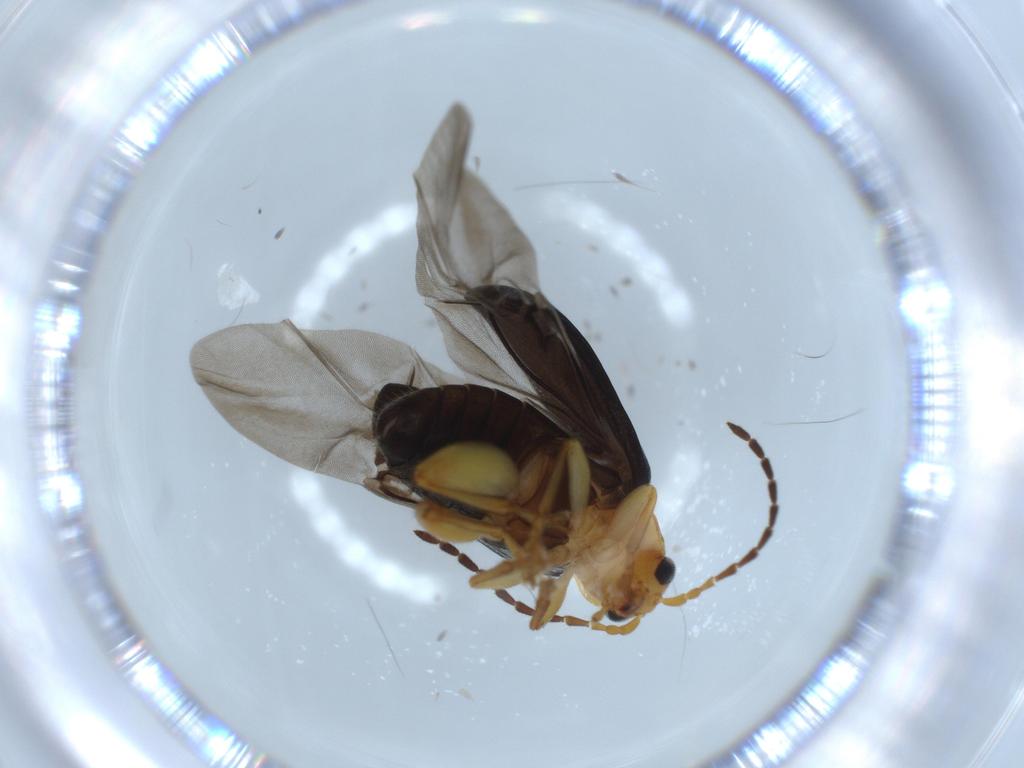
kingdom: Animalia
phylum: Arthropoda
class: Insecta
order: Coleoptera
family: Chrysomelidae
